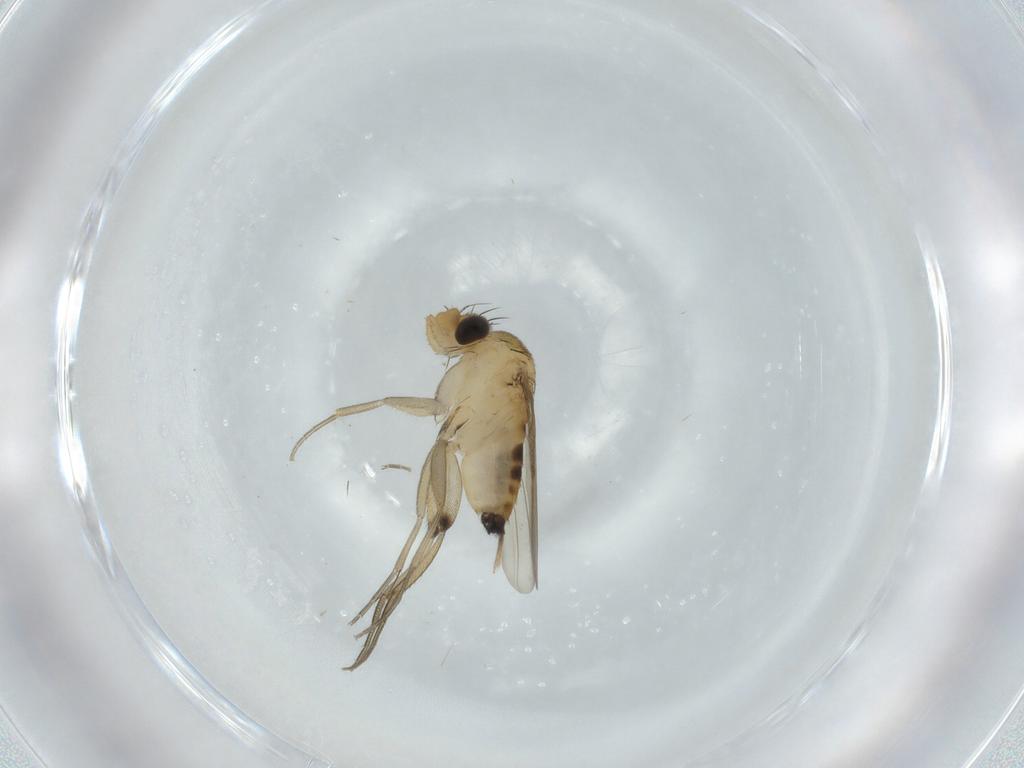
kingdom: Animalia
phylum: Arthropoda
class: Insecta
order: Diptera
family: Phoridae
